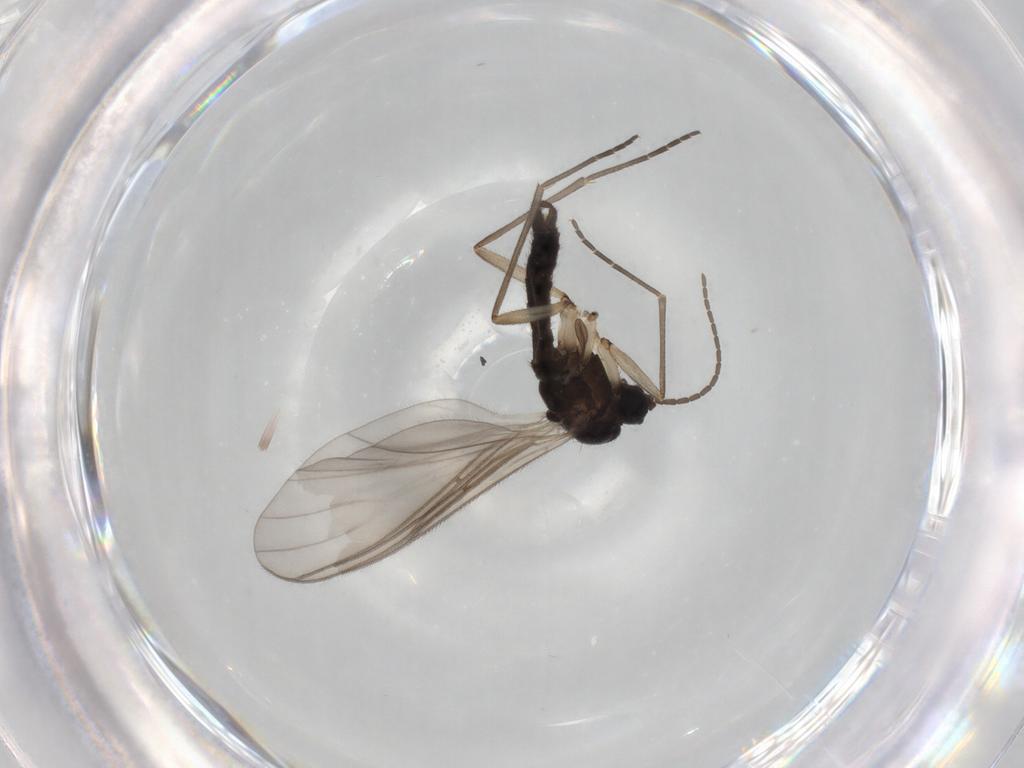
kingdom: Animalia
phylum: Arthropoda
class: Insecta
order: Diptera
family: Sciaridae
